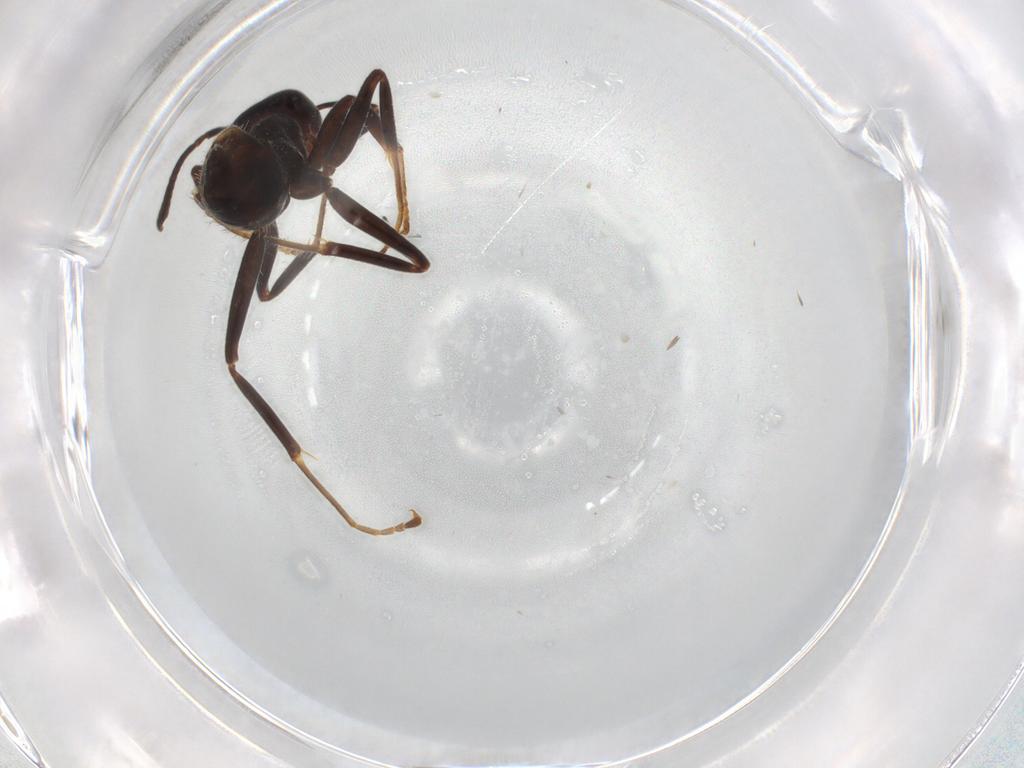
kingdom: Animalia
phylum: Arthropoda
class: Insecta
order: Hymenoptera
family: Formicidae
